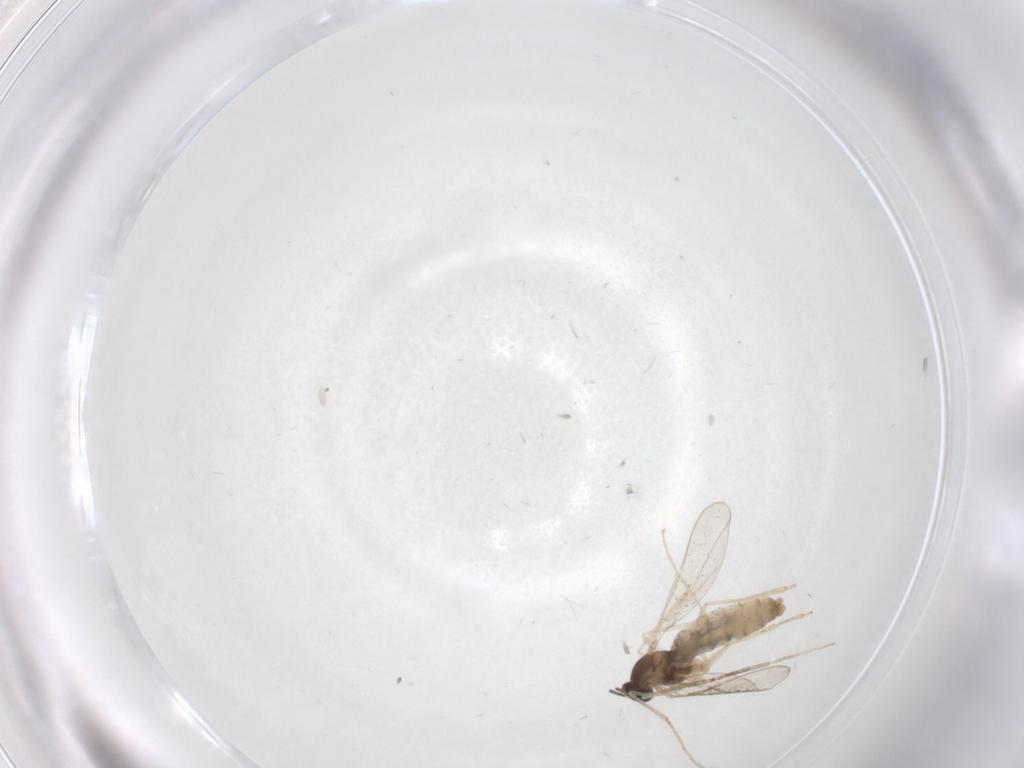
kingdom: Animalia
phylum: Arthropoda
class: Insecta
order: Diptera
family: Cecidomyiidae
